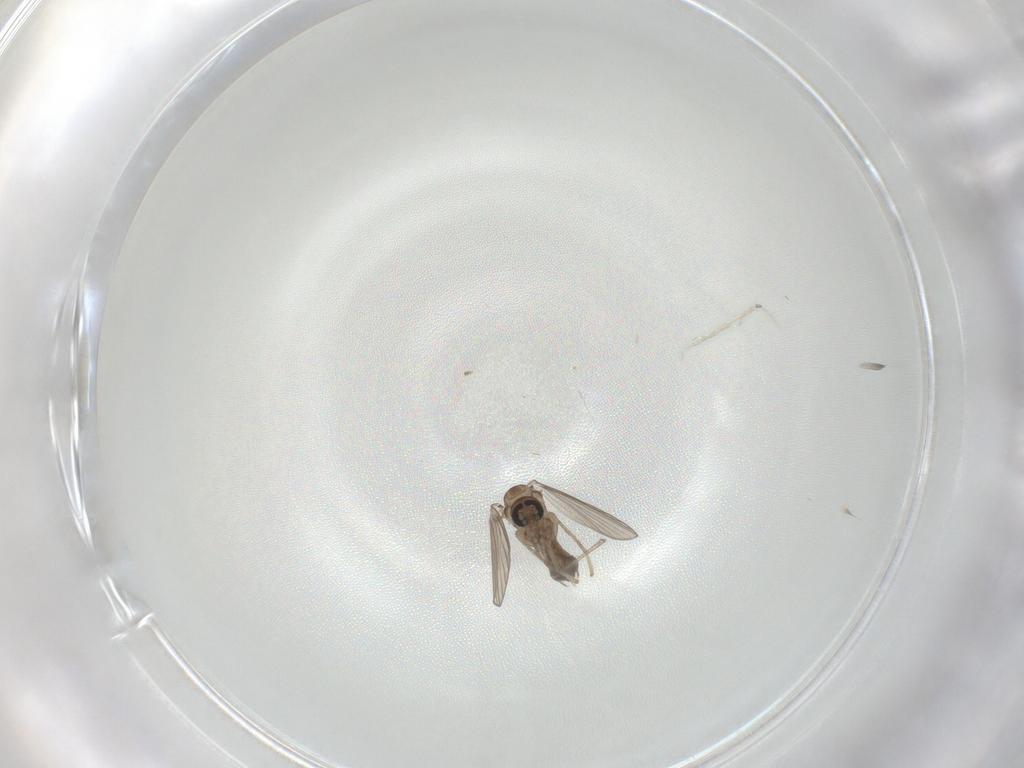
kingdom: Animalia
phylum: Arthropoda
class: Insecta
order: Diptera
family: Psychodidae
